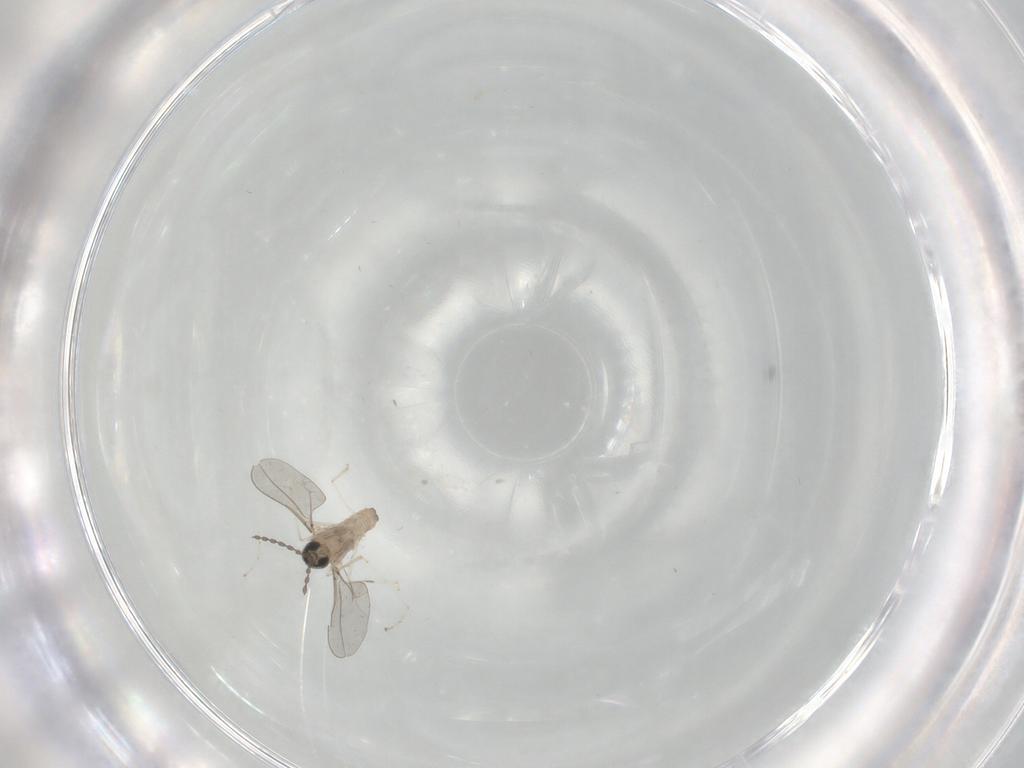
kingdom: Animalia
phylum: Arthropoda
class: Insecta
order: Diptera
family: Cecidomyiidae
